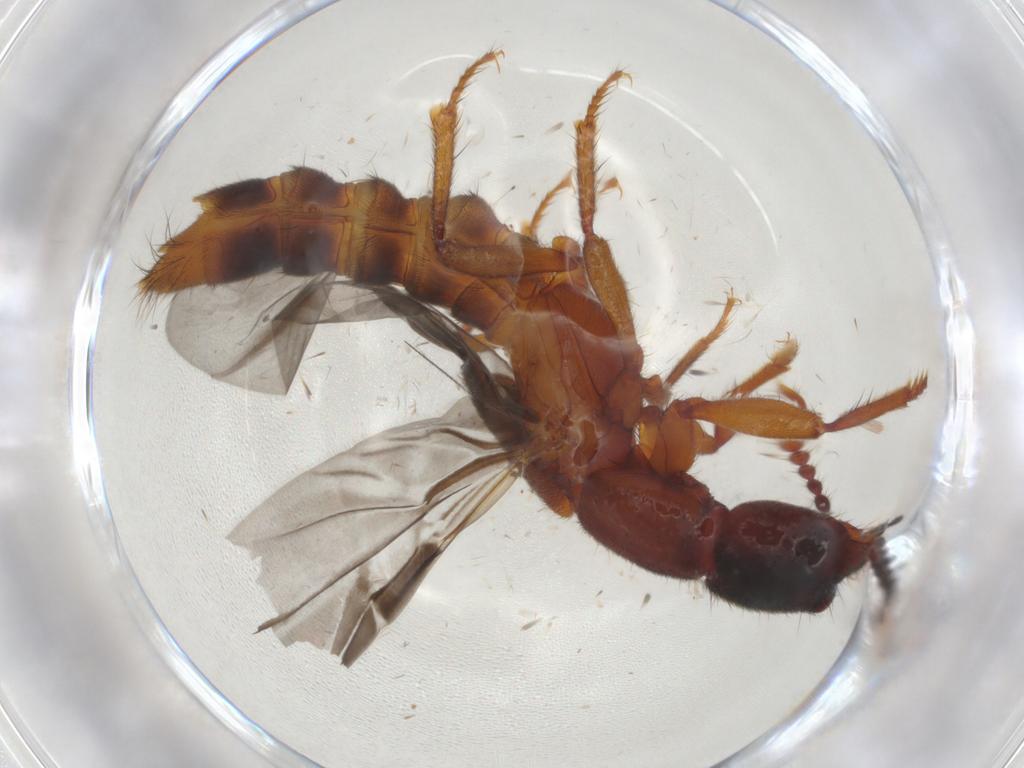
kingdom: Animalia
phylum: Arthropoda
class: Insecta
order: Coleoptera
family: Staphylinidae
